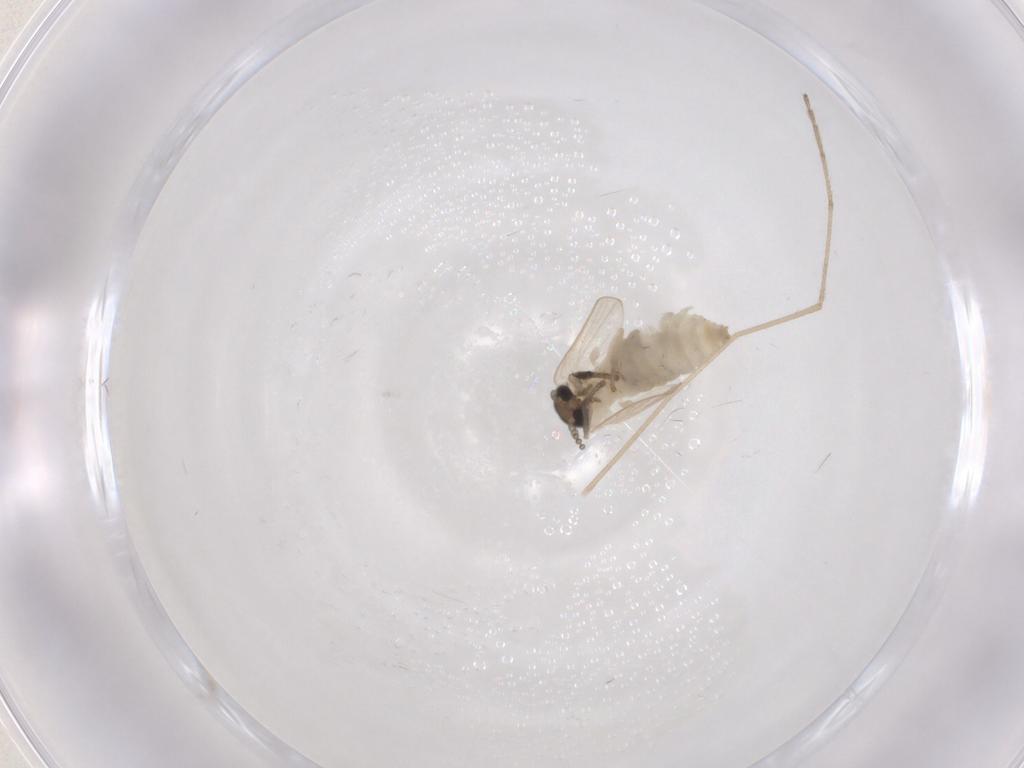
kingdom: Animalia
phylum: Arthropoda
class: Insecta
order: Diptera
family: Psychodidae
